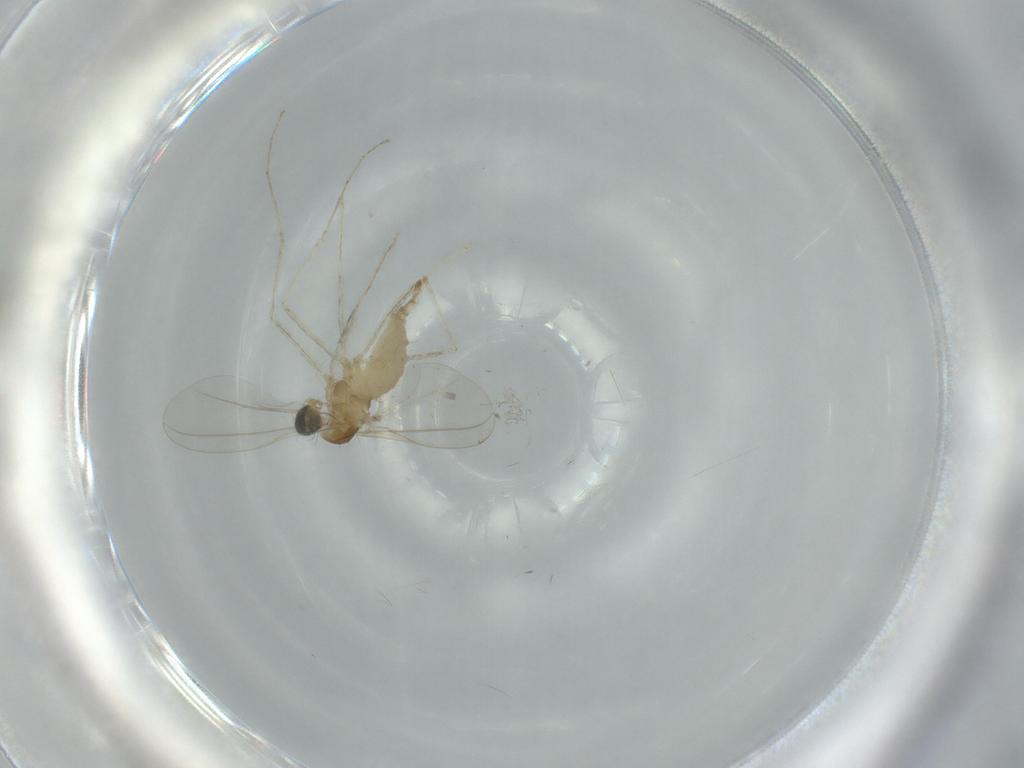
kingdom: Animalia
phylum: Arthropoda
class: Insecta
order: Diptera
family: Cecidomyiidae
